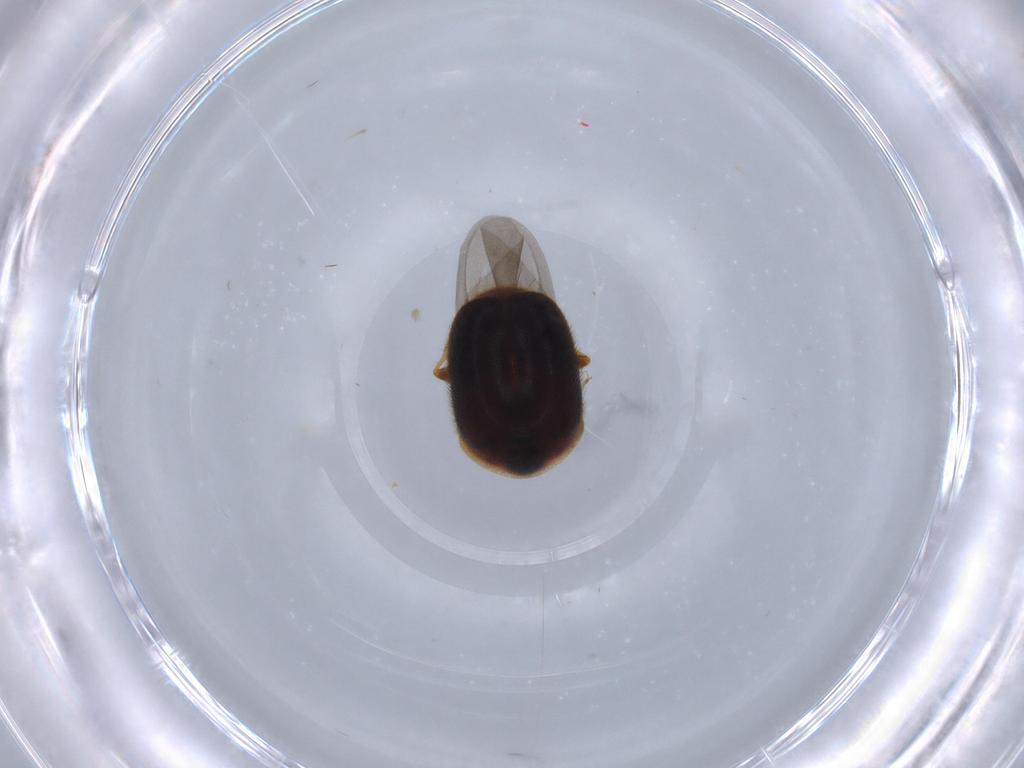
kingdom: Animalia
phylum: Arthropoda
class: Insecta
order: Coleoptera
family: Corylophidae
